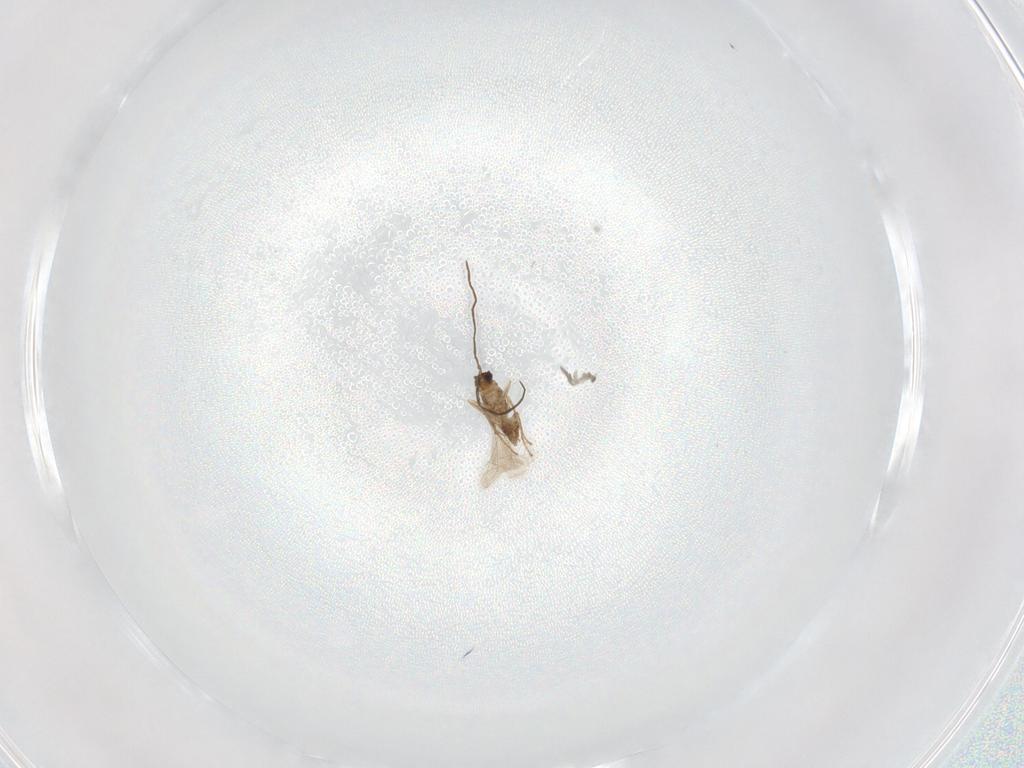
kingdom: Animalia
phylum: Arthropoda
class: Insecta
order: Hymenoptera
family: Mymaridae
